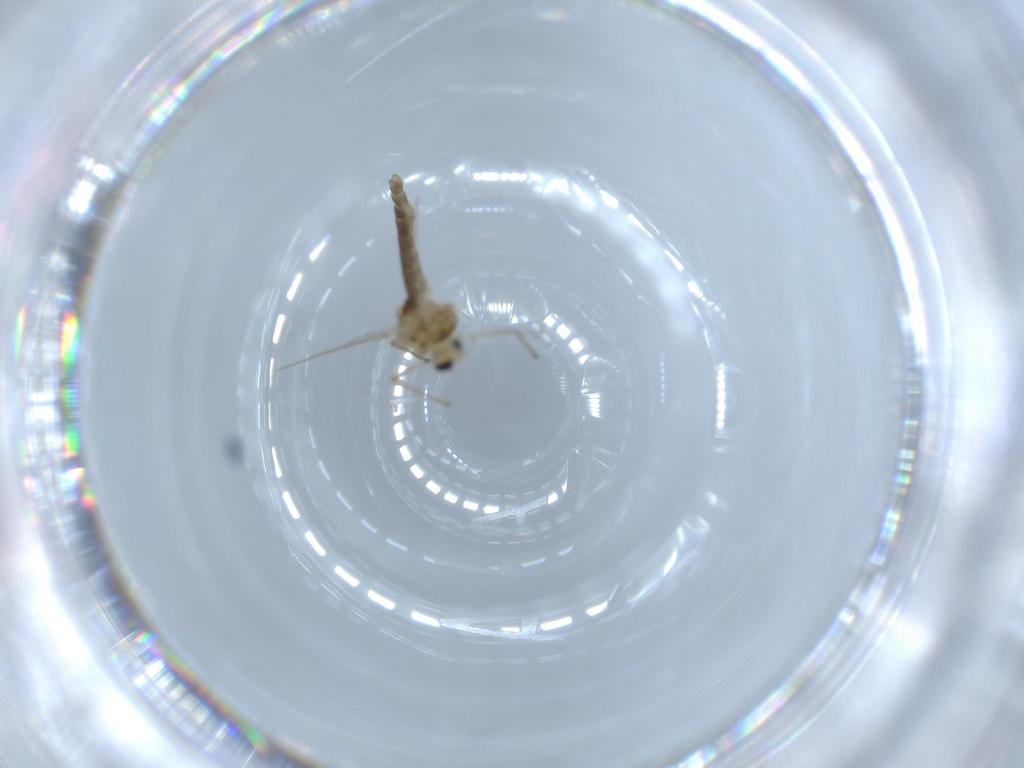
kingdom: Animalia
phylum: Arthropoda
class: Insecta
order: Diptera
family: Chironomidae
